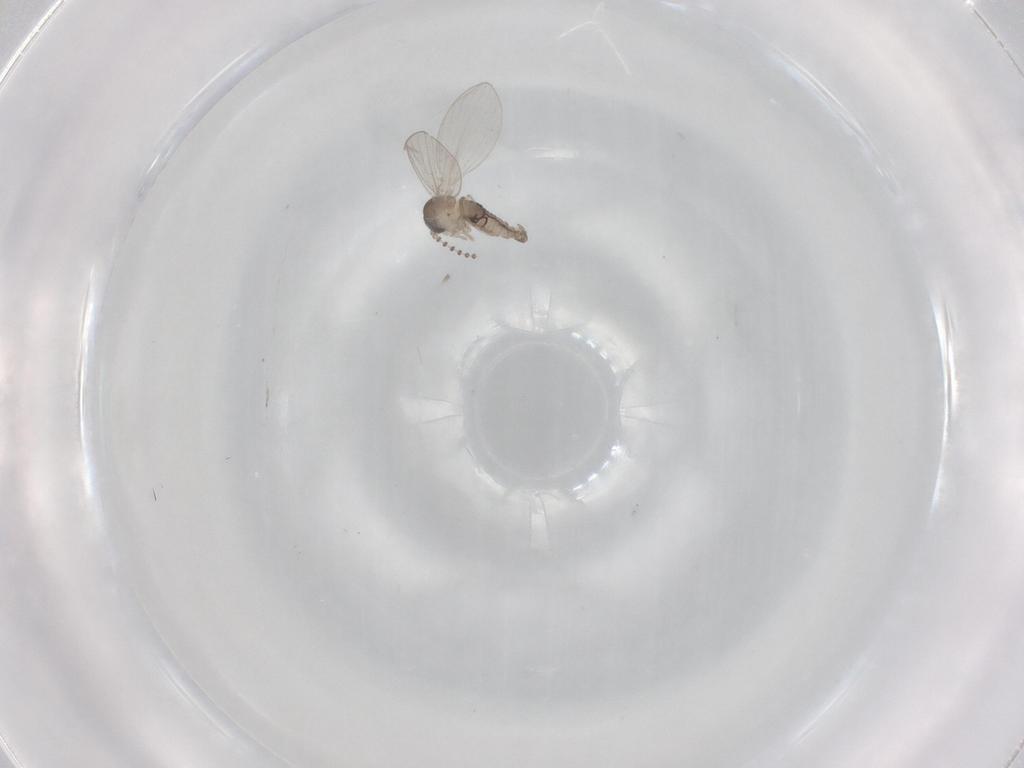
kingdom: Animalia
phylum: Arthropoda
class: Insecta
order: Diptera
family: Psychodidae
